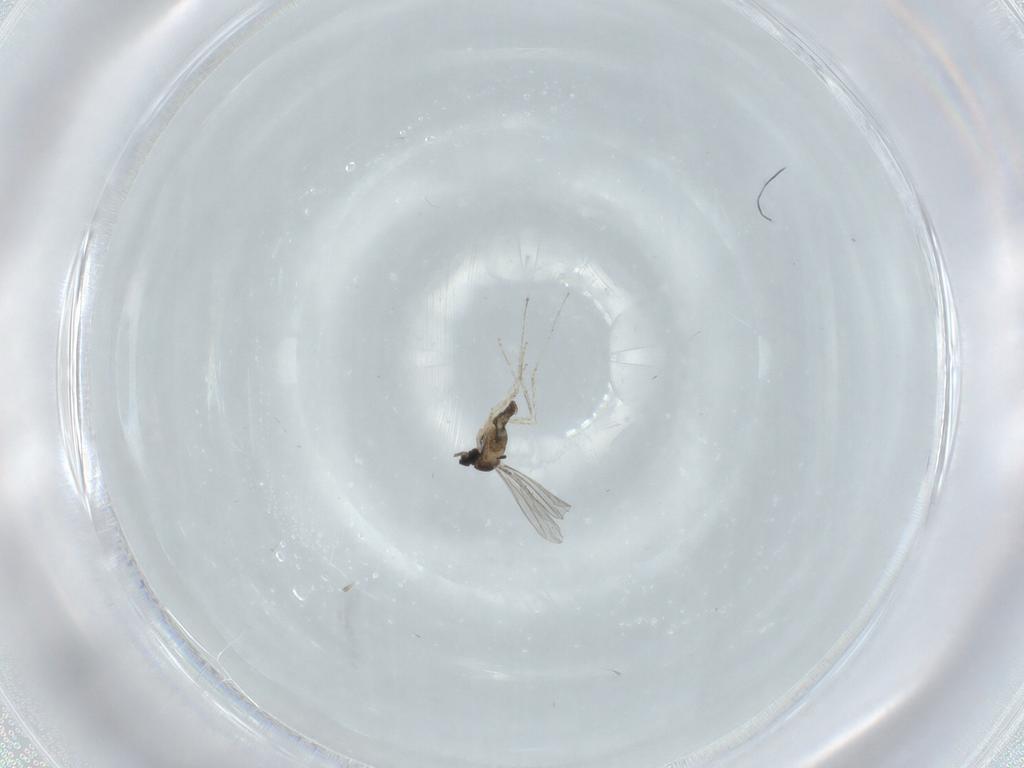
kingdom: Animalia
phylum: Arthropoda
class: Insecta
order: Diptera
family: Cecidomyiidae
